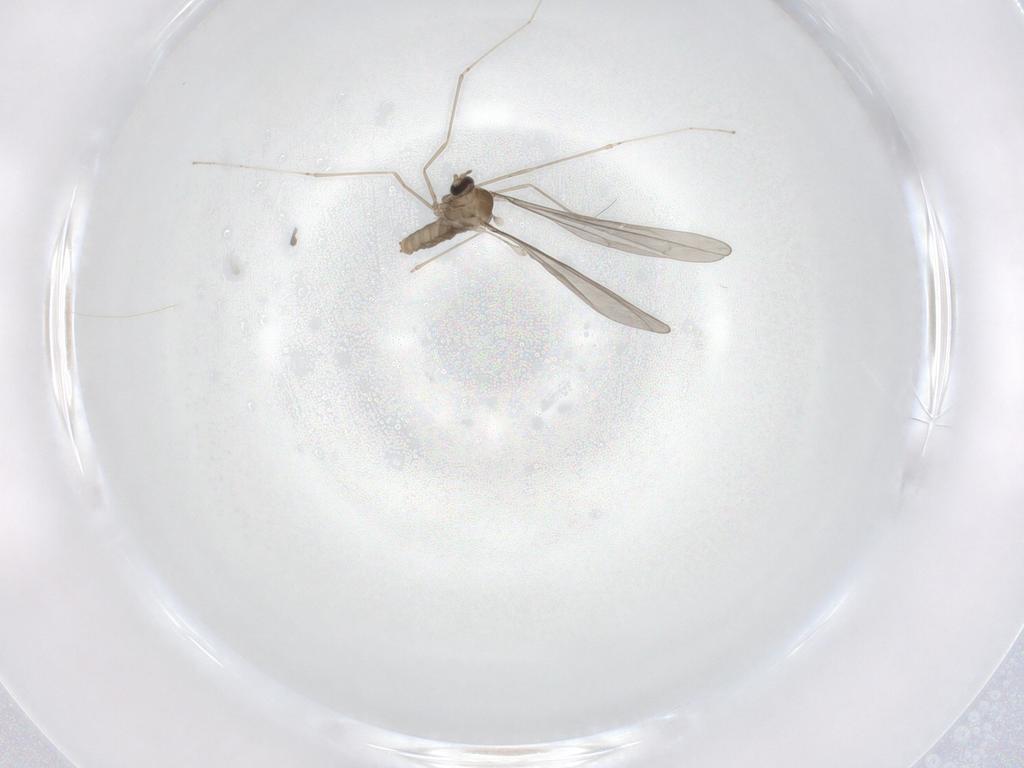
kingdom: Animalia
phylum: Arthropoda
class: Insecta
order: Diptera
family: Cecidomyiidae
